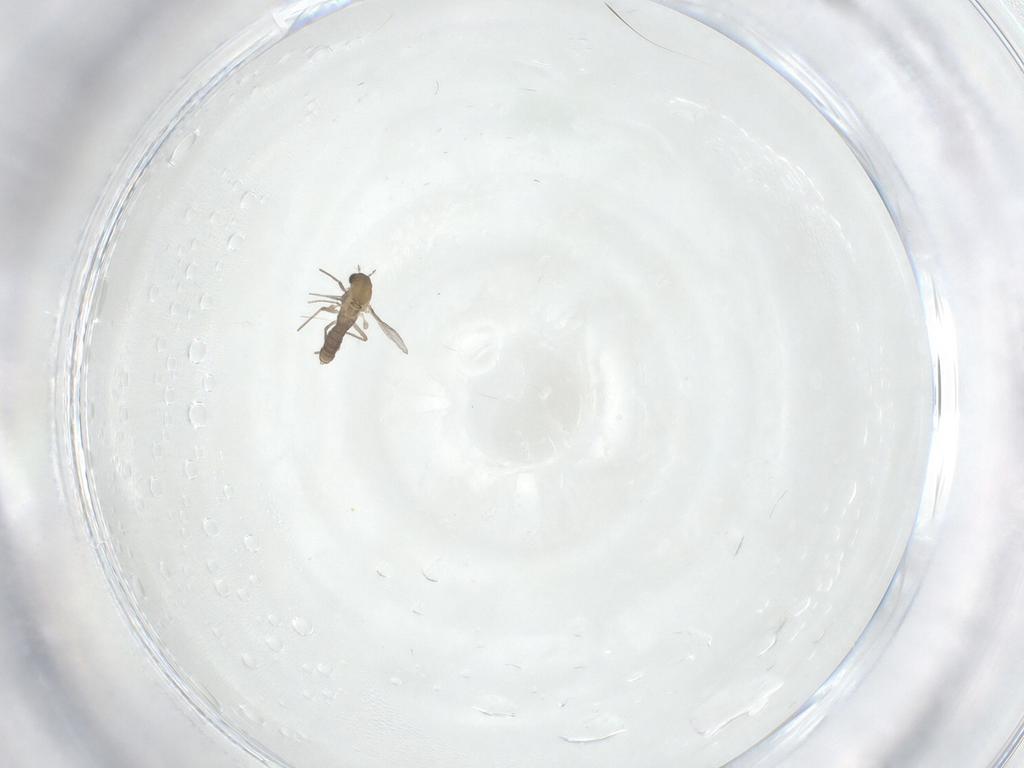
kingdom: Animalia
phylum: Arthropoda
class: Insecta
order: Diptera
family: Chironomidae
